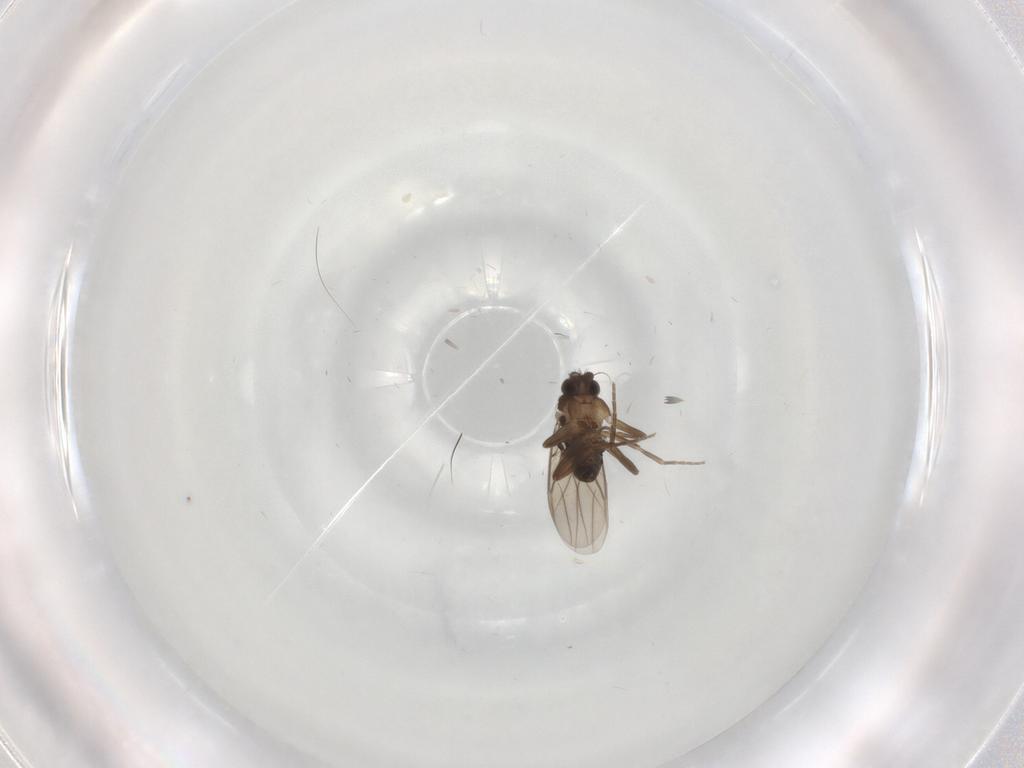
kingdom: Animalia
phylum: Arthropoda
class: Insecta
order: Diptera
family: Phoridae
